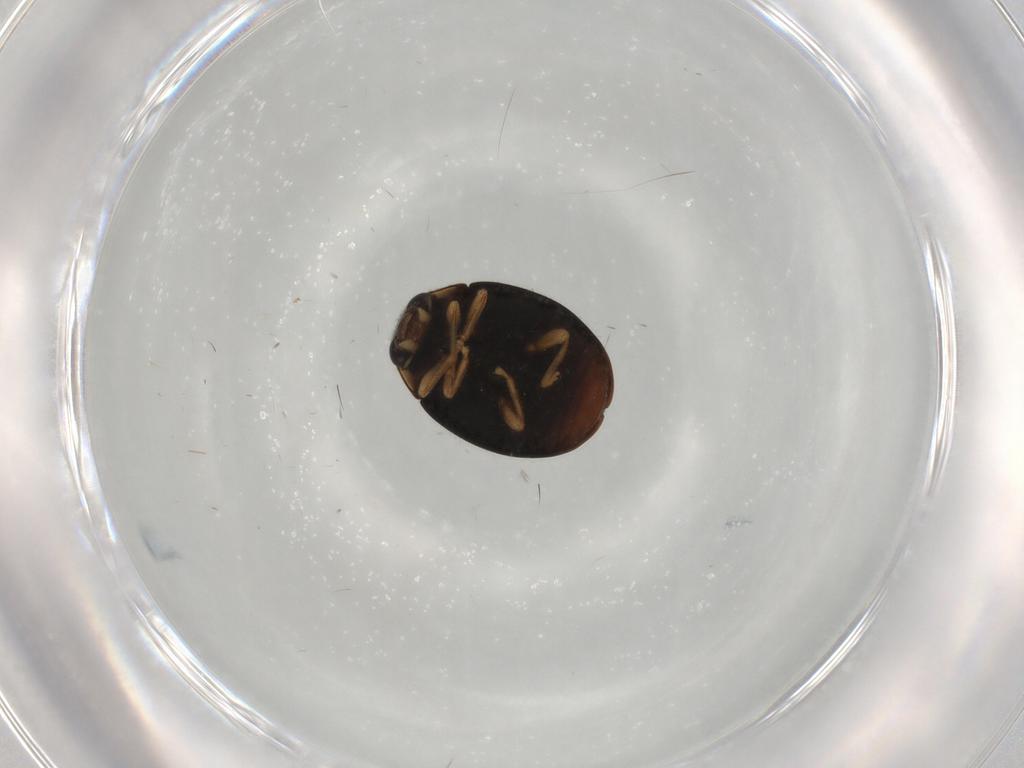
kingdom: Animalia
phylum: Arthropoda
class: Insecta
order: Coleoptera
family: Coccinellidae
